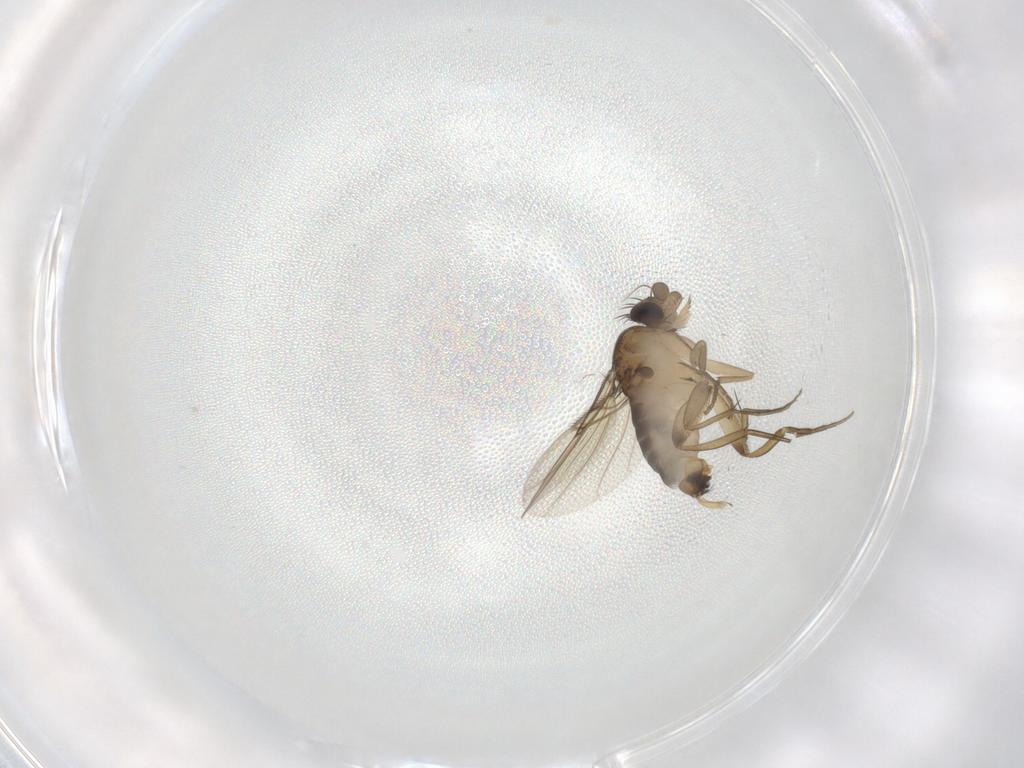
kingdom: Animalia
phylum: Arthropoda
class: Insecta
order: Diptera
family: Phoridae
